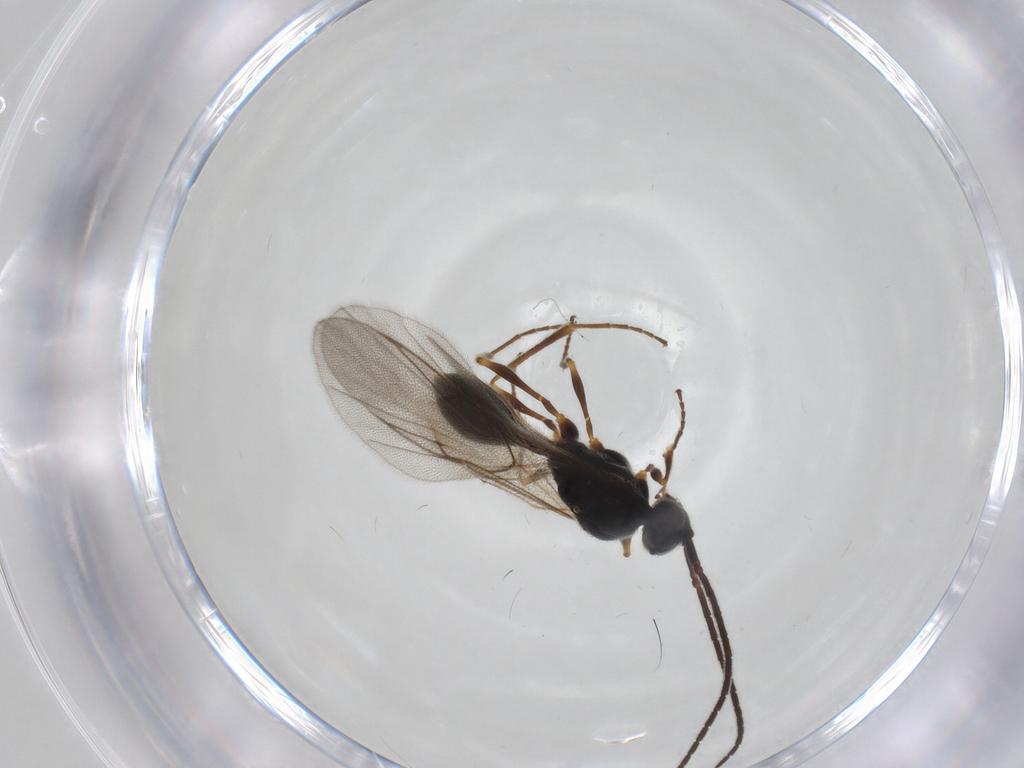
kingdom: Animalia
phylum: Arthropoda
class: Insecta
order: Hymenoptera
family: Diapriidae
